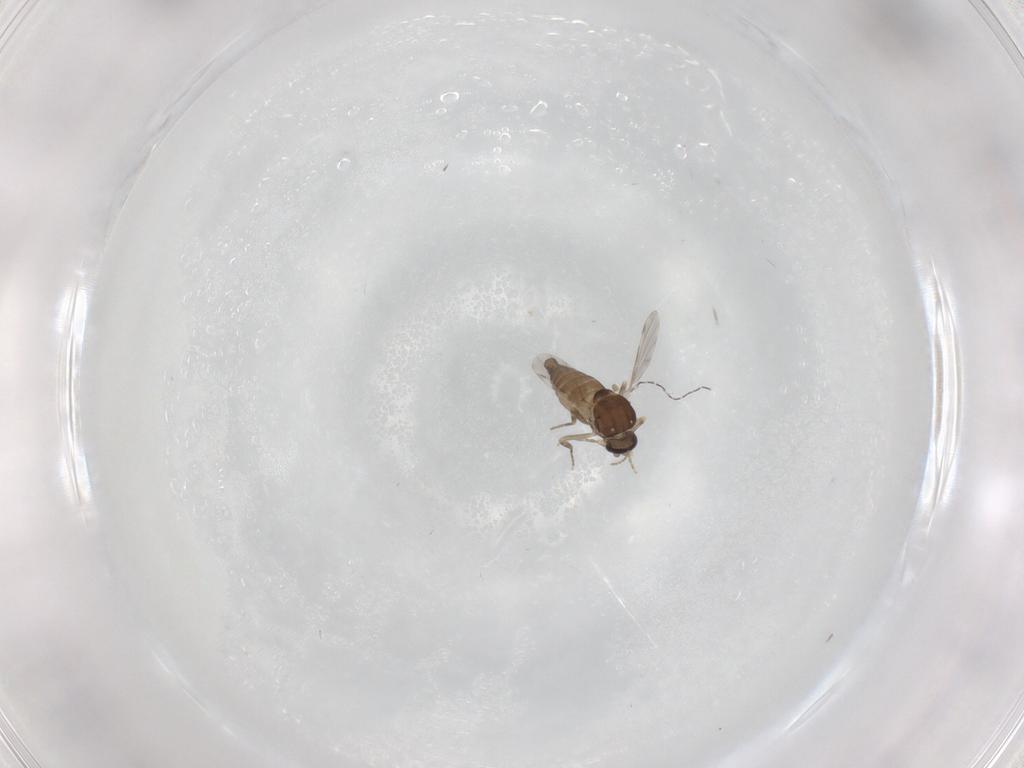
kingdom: Animalia
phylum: Arthropoda
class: Insecta
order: Diptera
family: Ceratopogonidae
